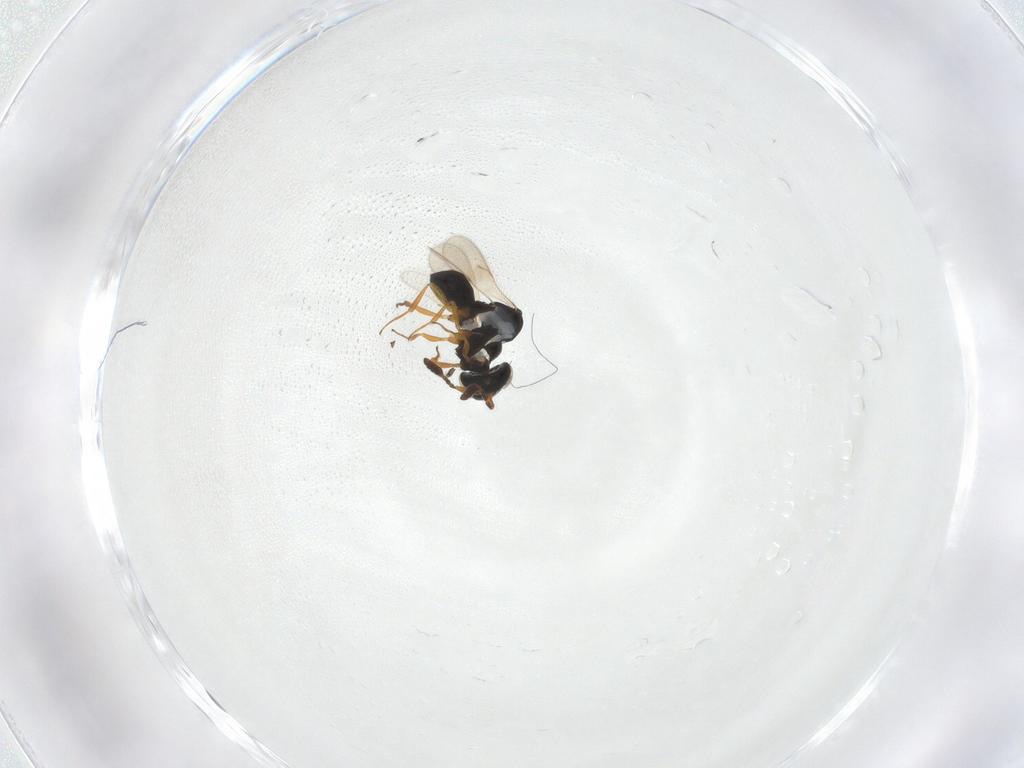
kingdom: Animalia
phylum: Arthropoda
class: Insecta
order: Hymenoptera
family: Scelionidae
